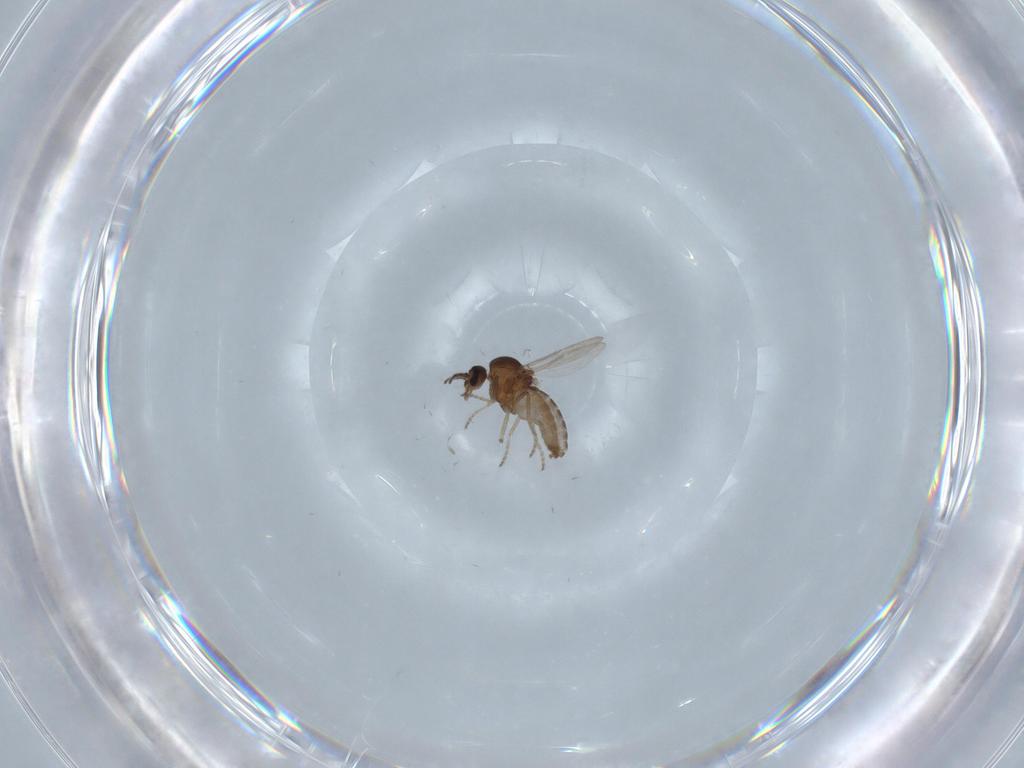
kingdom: Animalia
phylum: Arthropoda
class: Insecta
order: Diptera
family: Ceratopogonidae
